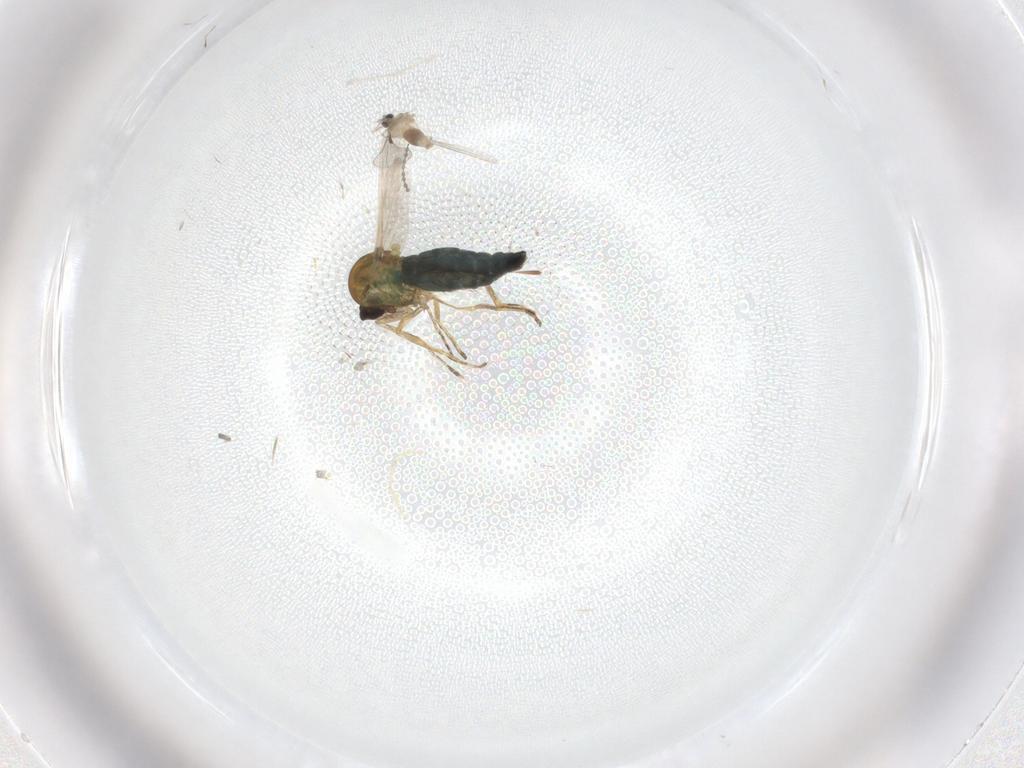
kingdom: Animalia
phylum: Arthropoda
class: Insecta
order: Diptera
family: Ceratopogonidae
